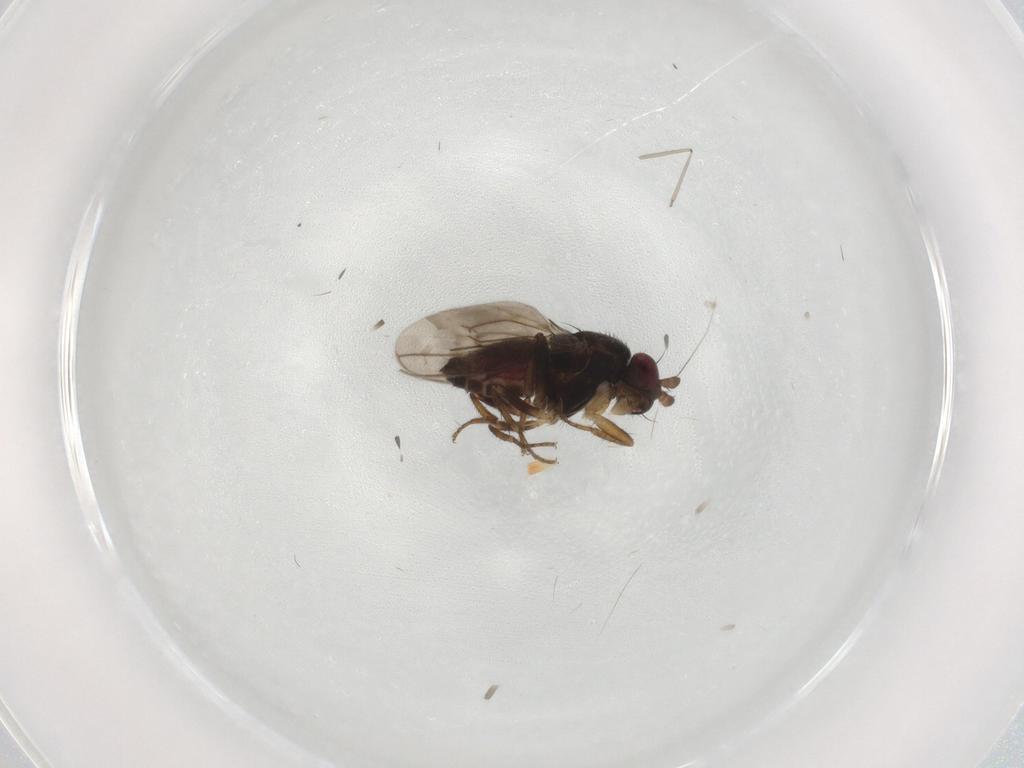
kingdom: Animalia
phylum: Arthropoda
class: Insecta
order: Diptera
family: Sphaeroceridae
